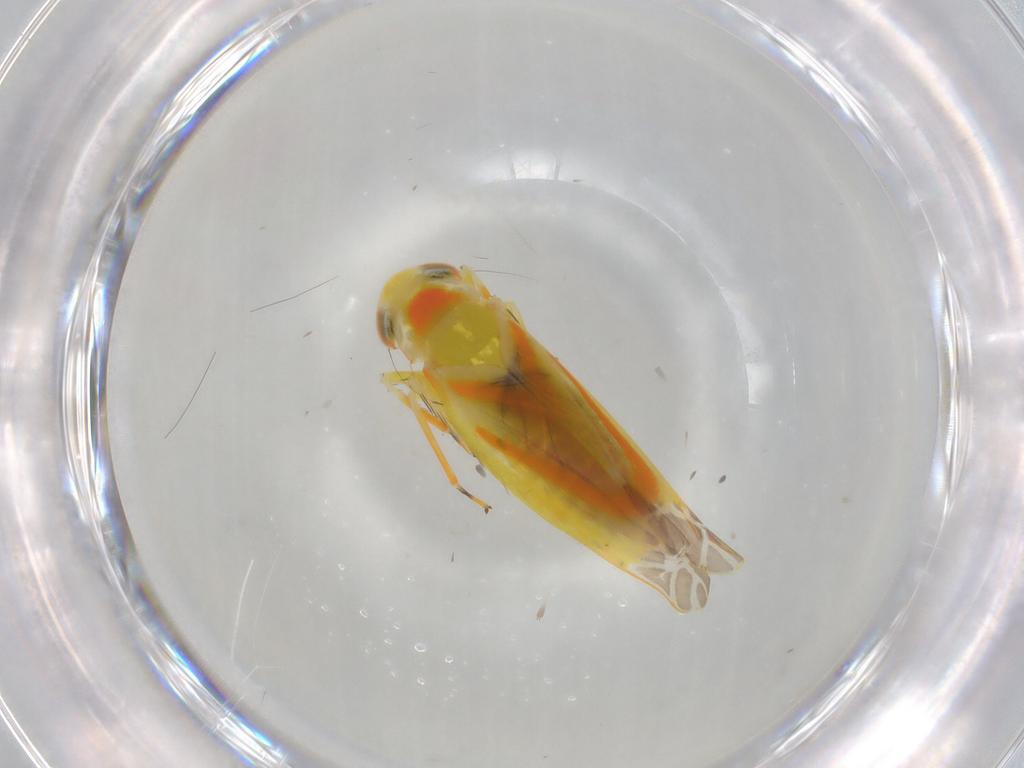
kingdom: Animalia
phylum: Arthropoda
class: Insecta
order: Hemiptera
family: Cicadellidae
